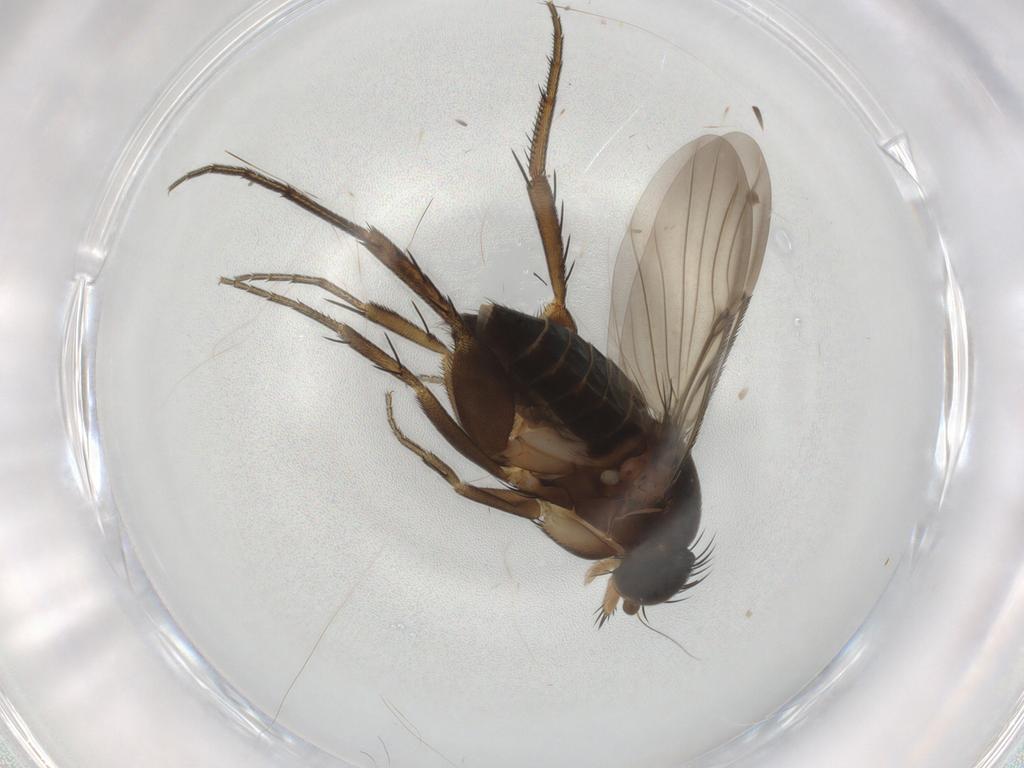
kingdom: Animalia
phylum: Arthropoda
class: Insecta
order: Diptera
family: Phoridae
